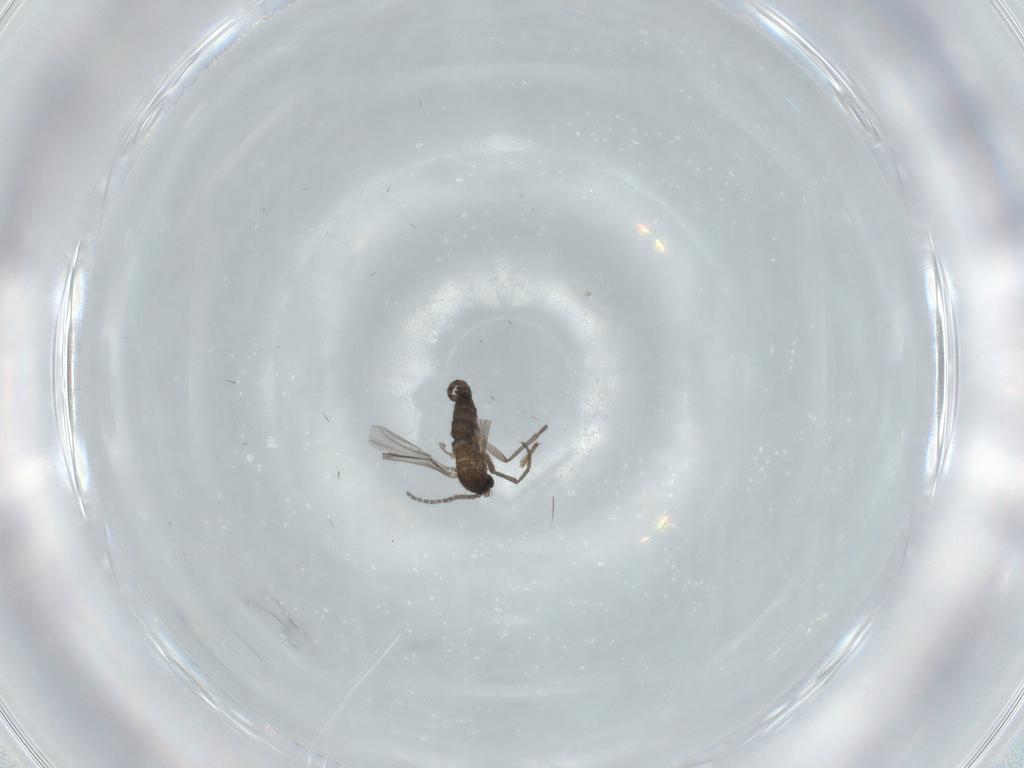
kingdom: Animalia
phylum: Arthropoda
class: Insecta
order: Diptera
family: Sciaridae
